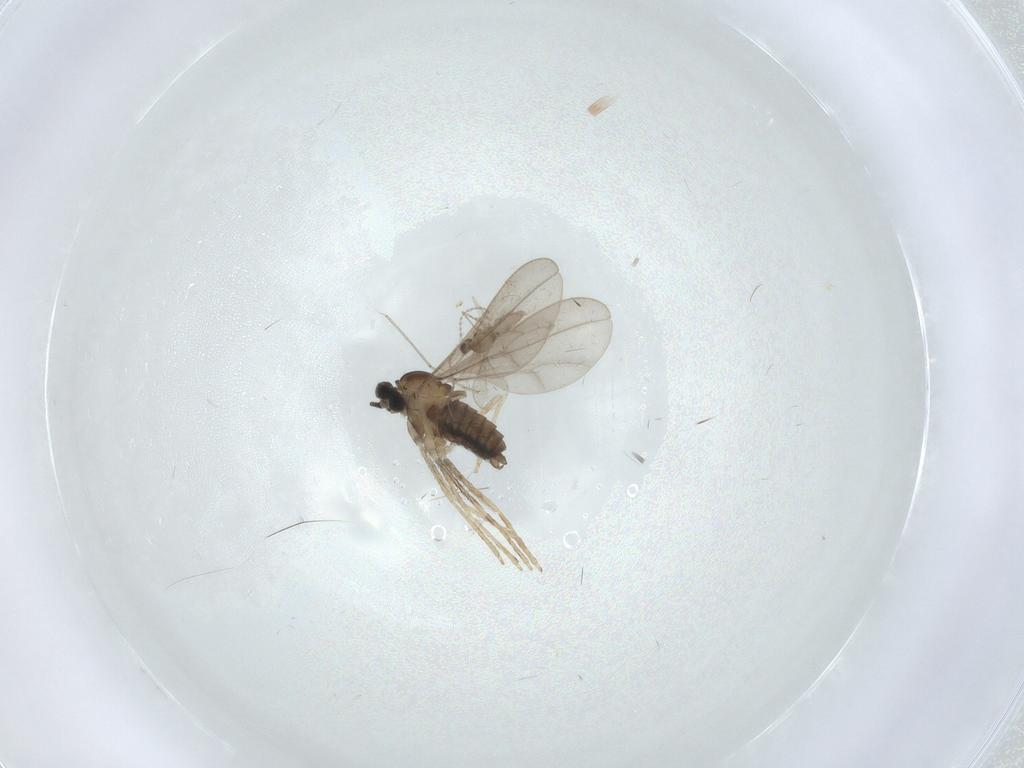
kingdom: Animalia
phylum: Arthropoda
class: Insecta
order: Diptera
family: Cecidomyiidae
